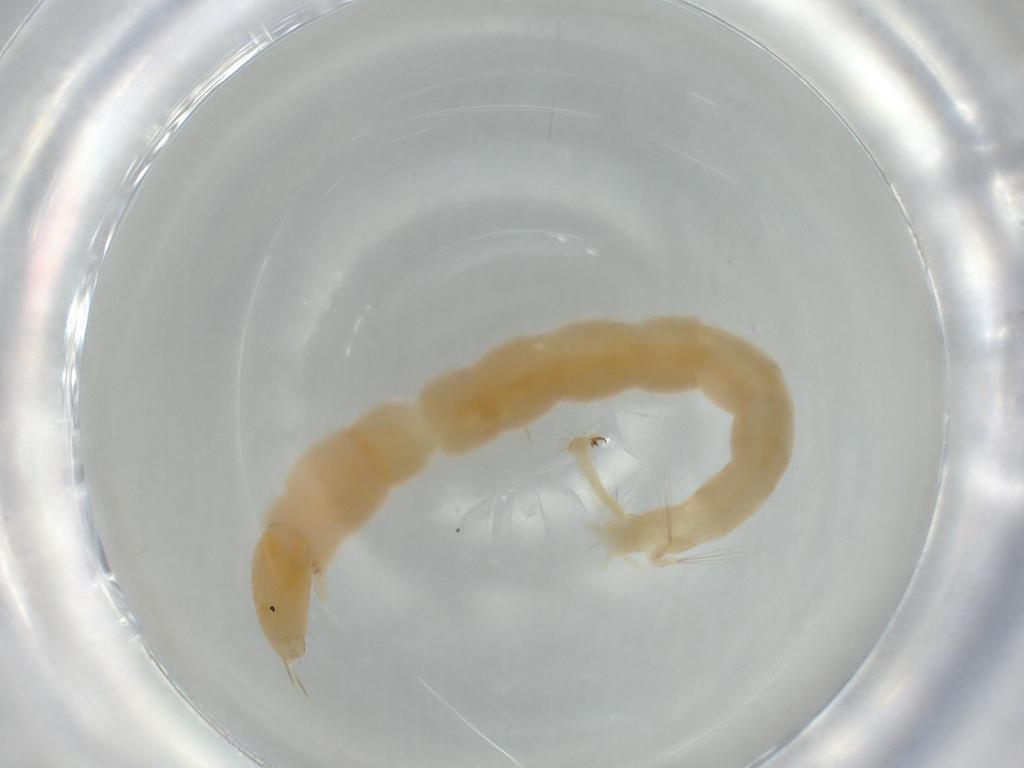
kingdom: Animalia
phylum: Arthropoda
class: Insecta
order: Diptera
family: Chironomidae
